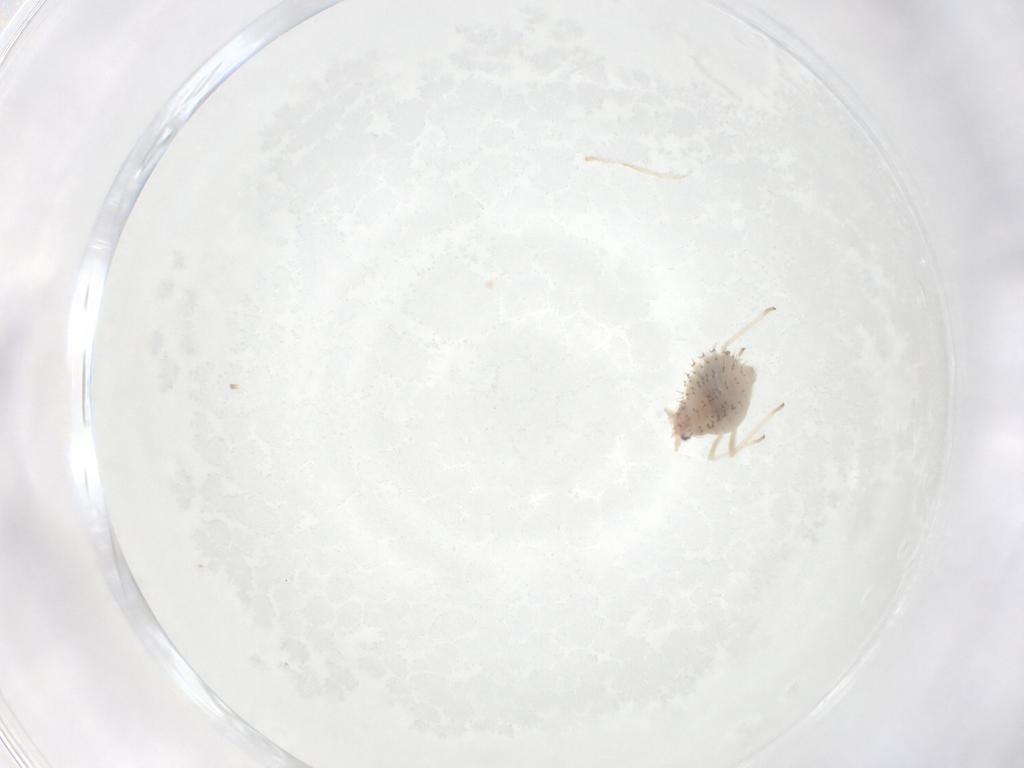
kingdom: Animalia
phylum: Arthropoda
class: Insecta
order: Hemiptera
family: Aphididae
